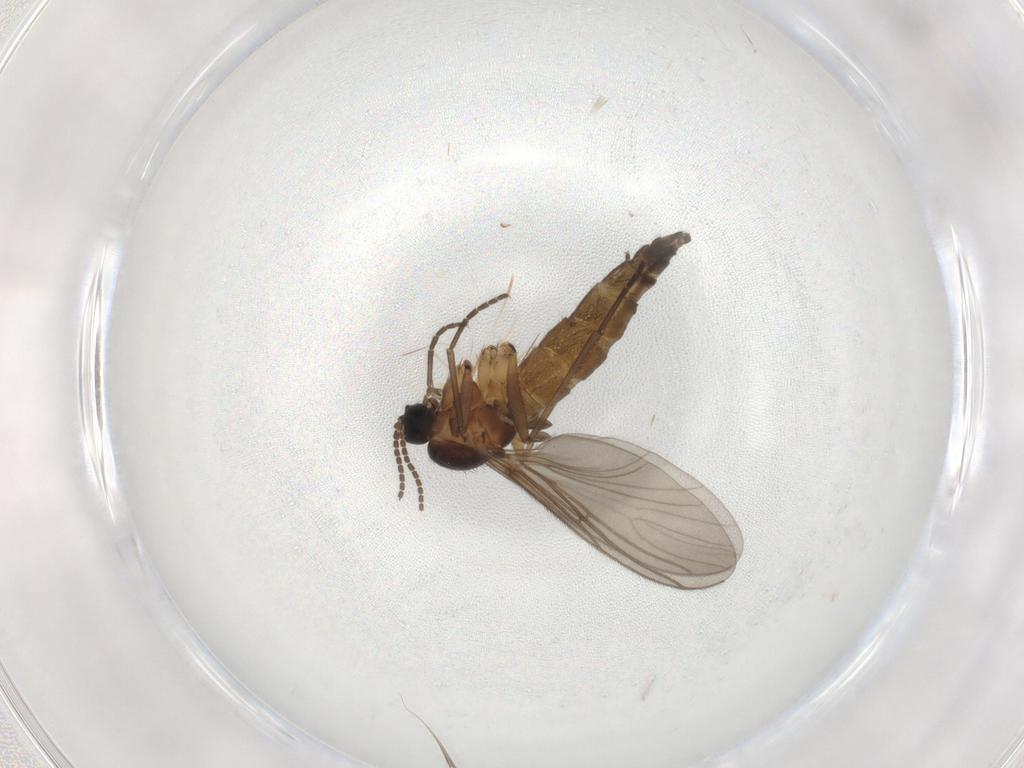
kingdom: Animalia
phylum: Arthropoda
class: Insecta
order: Diptera
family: Sciaridae
